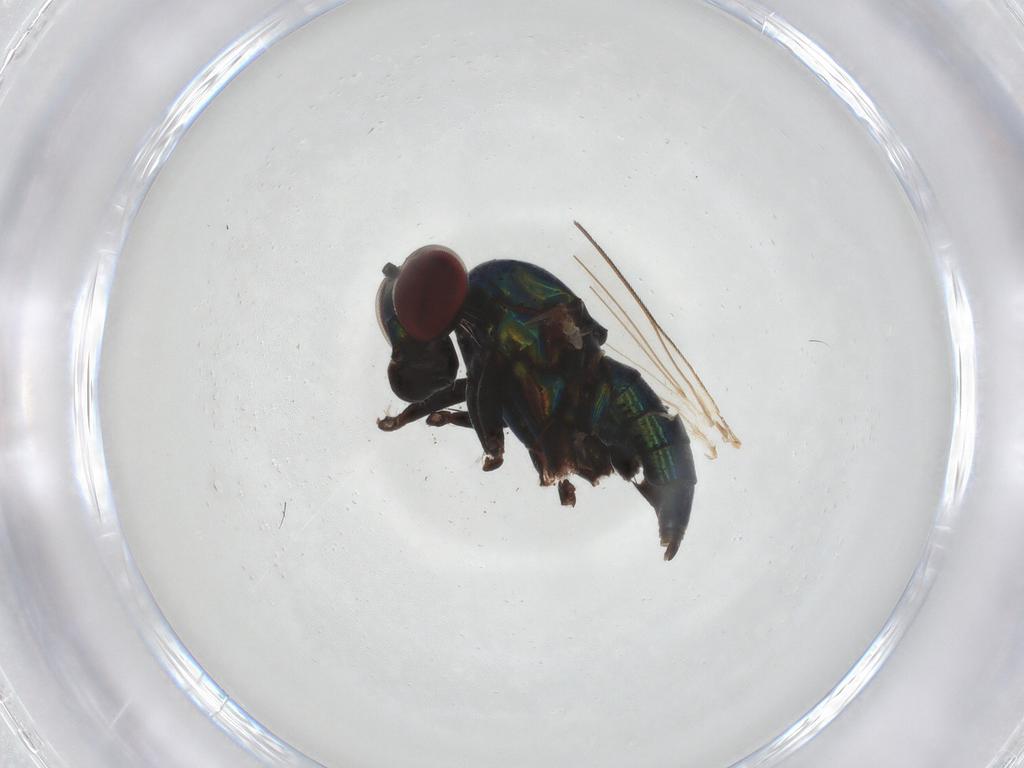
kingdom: Animalia
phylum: Arthropoda
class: Insecta
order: Diptera
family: Dolichopodidae
